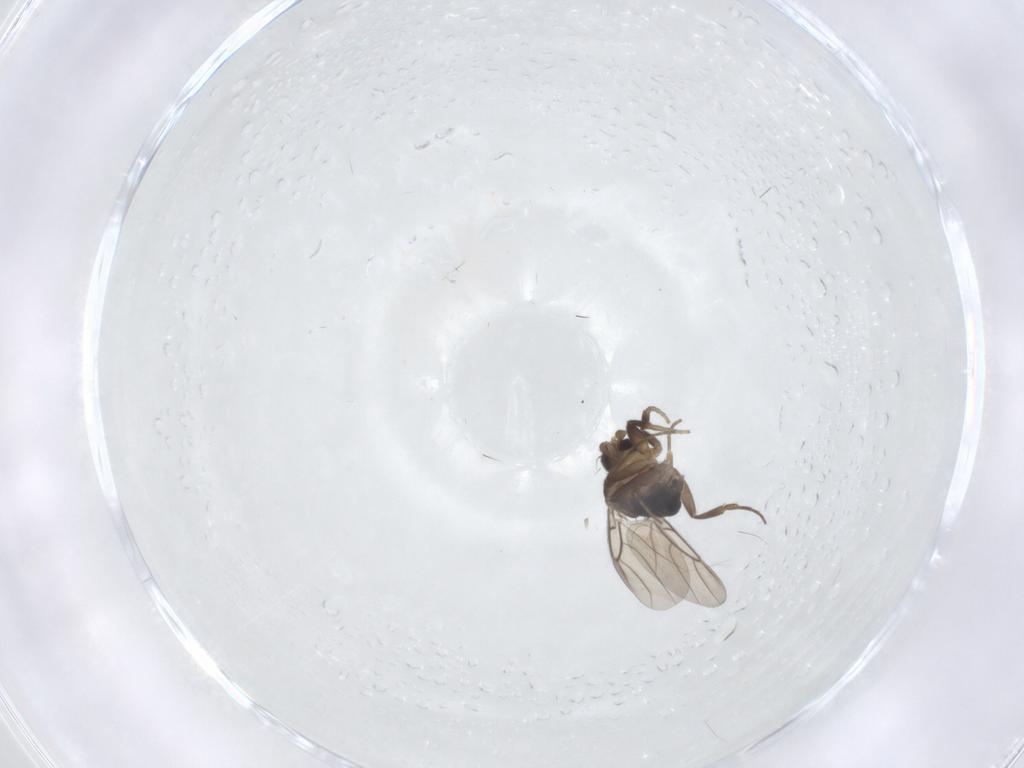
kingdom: Animalia
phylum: Arthropoda
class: Insecta
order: Diptera
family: Phoridae
